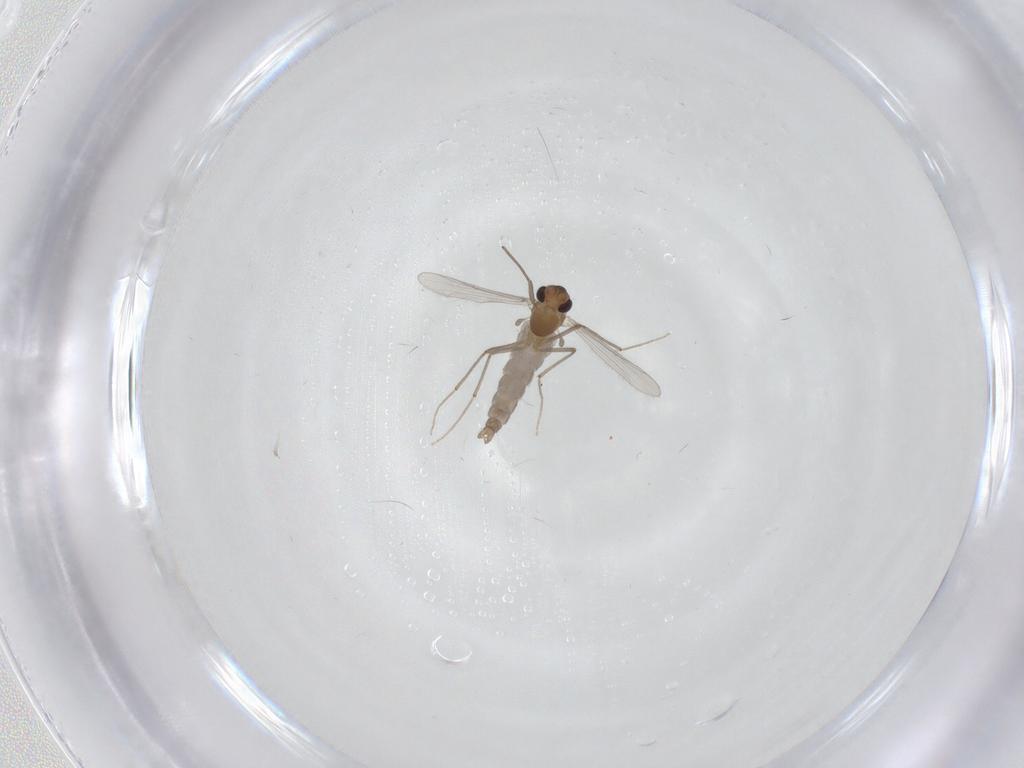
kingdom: Animalia
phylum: Arthropoda
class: Insecta
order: Diptera
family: Chironomidae
